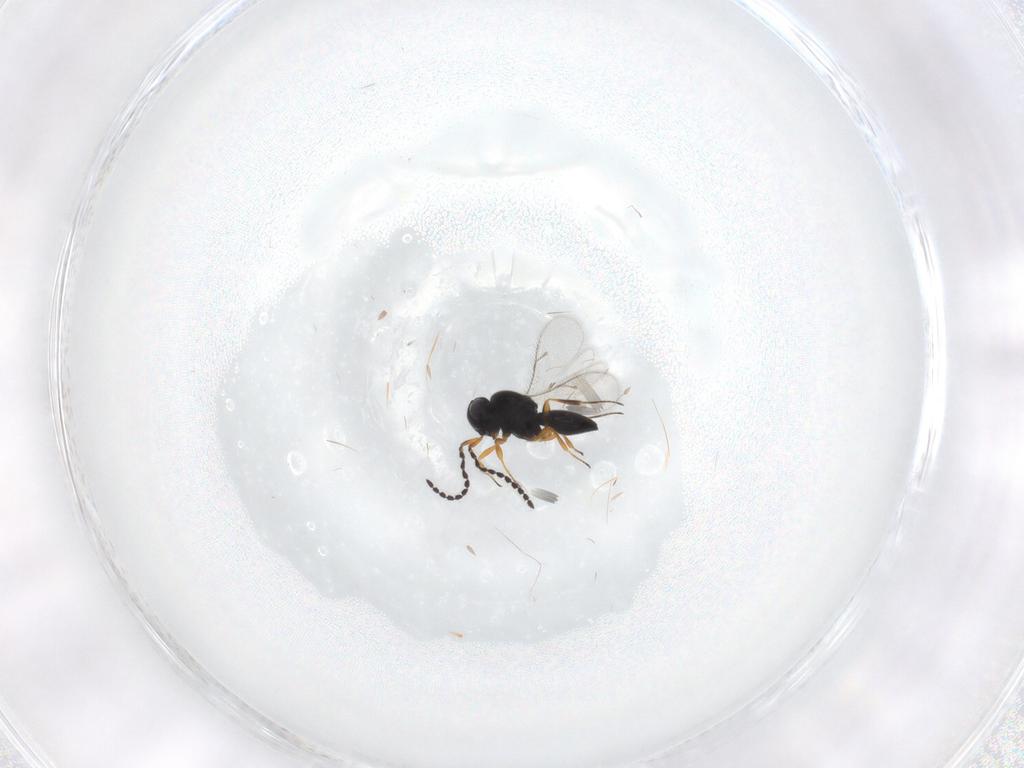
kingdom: Animalia
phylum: Arthropoda
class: Insecta
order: Hymenoptera
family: Scelionidae
